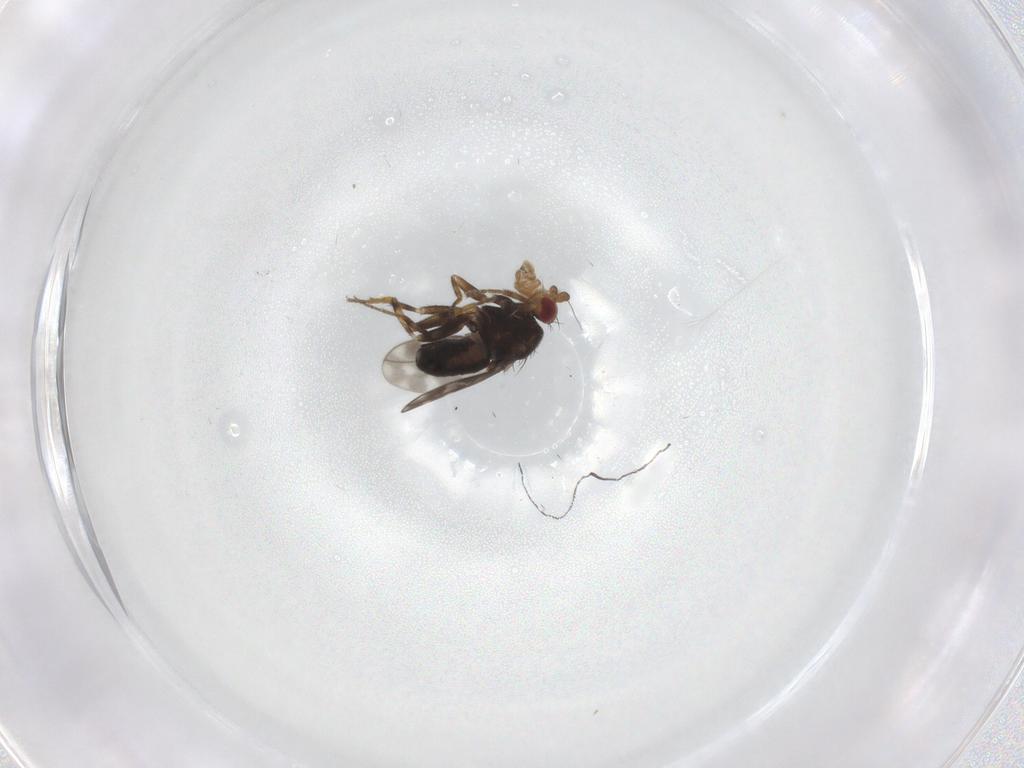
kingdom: Animalia
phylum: Arthropoda
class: Insecta
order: Diptera
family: Sphaeroceridae
